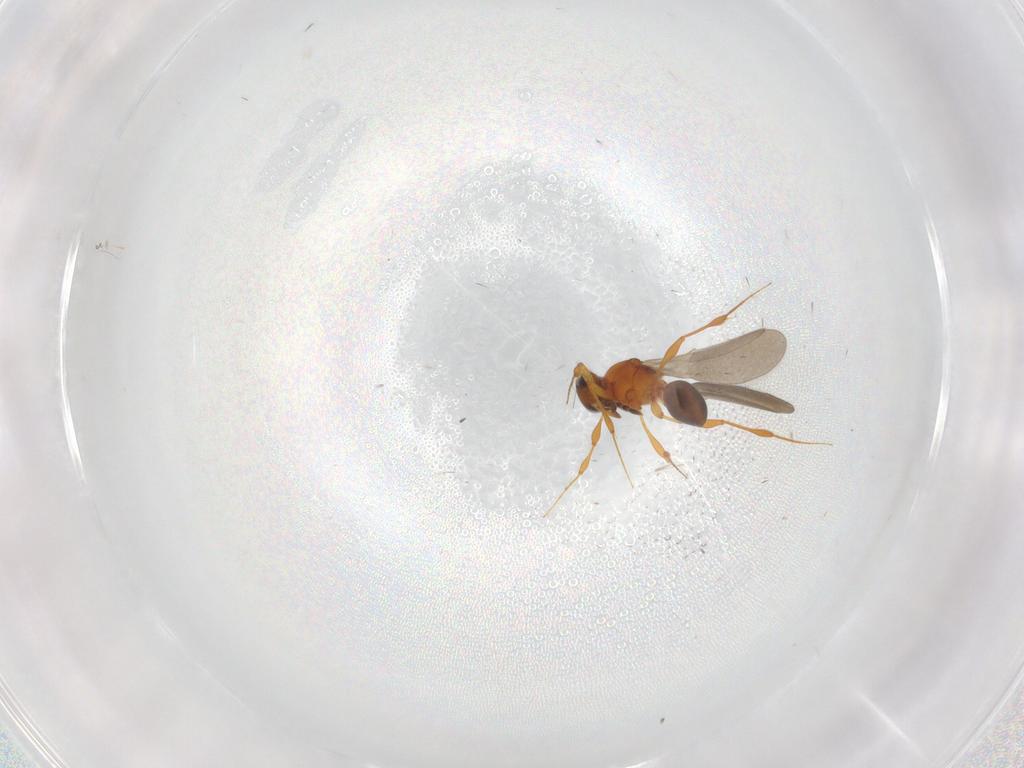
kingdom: Animalia
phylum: Arthropoda
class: Insecta
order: Hymenoptera
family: Platygastridae
